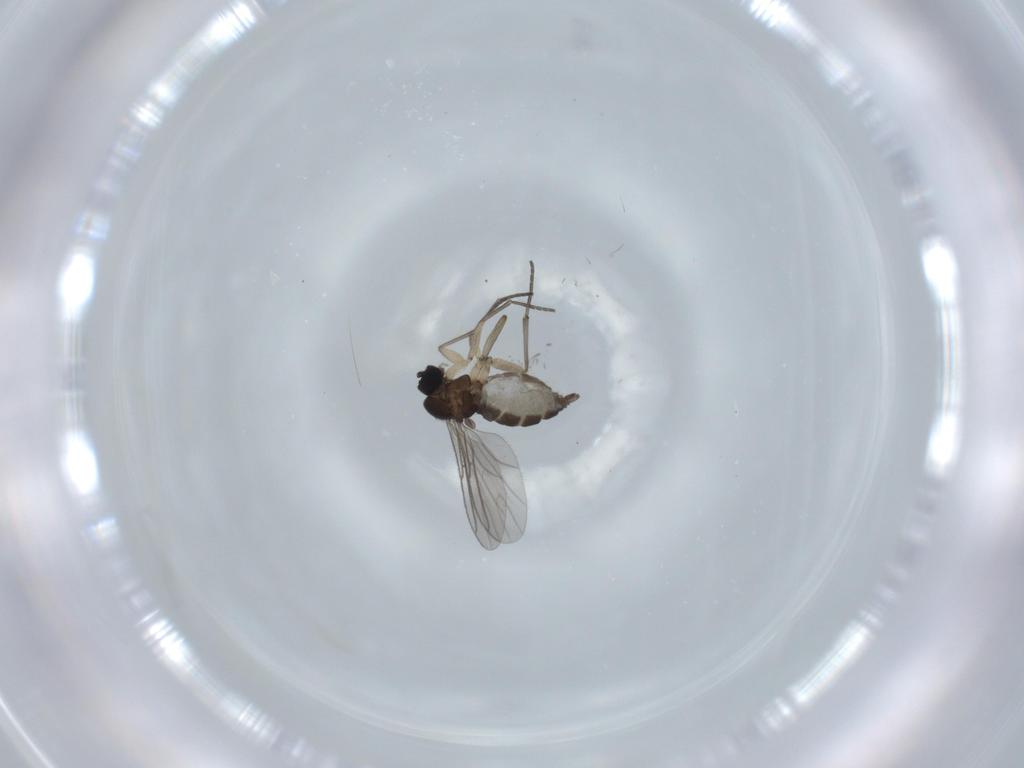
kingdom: Animalia
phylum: Arthropoda
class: Insecta
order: Diptera
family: Sciaridae
